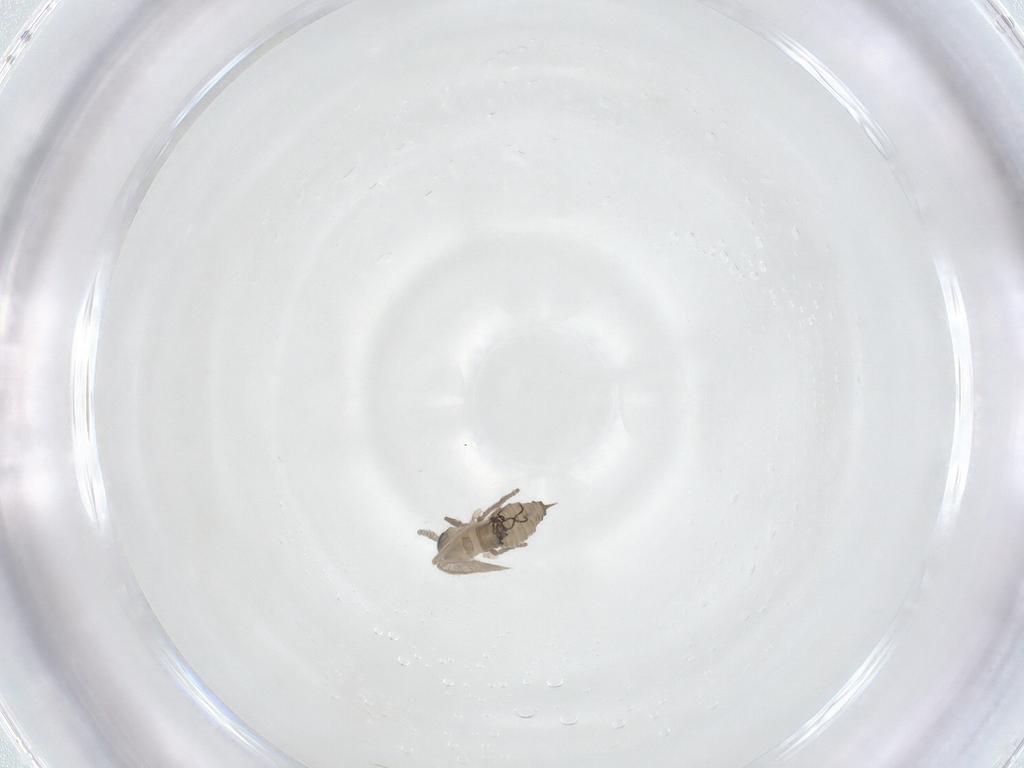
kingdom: Animalia
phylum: Arthropoda
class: Insecta
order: Diptera
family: Psychodidae
